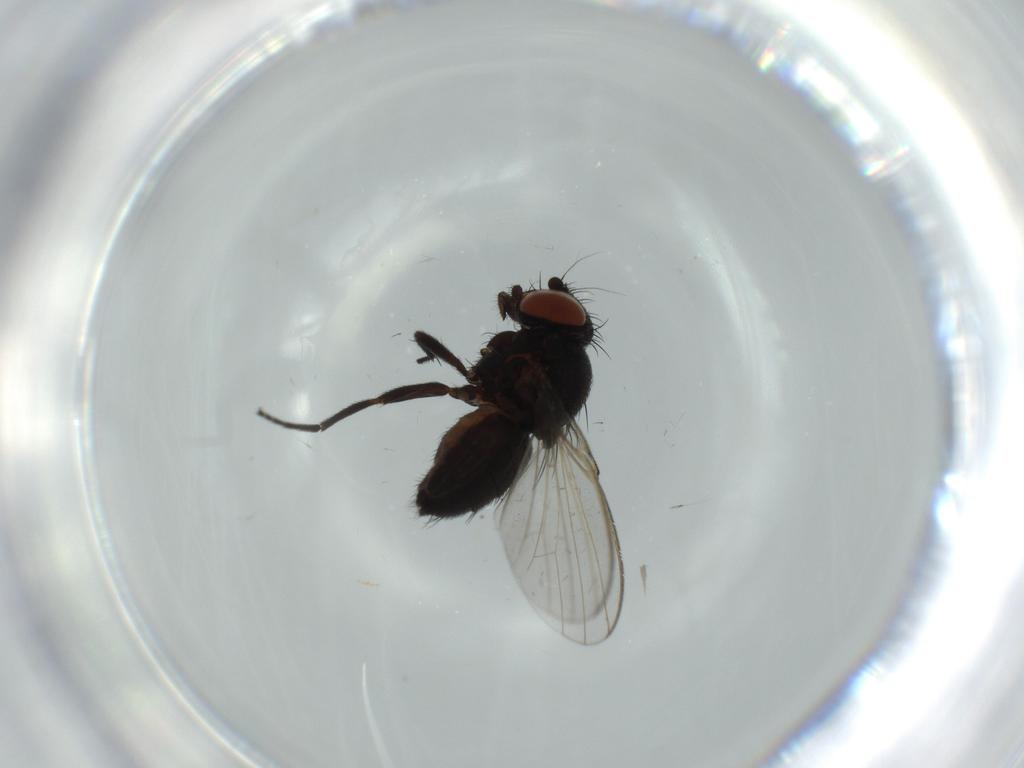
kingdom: Animalia
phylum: Arthropoda
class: Insecta
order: Diptera
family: Milichiidae
